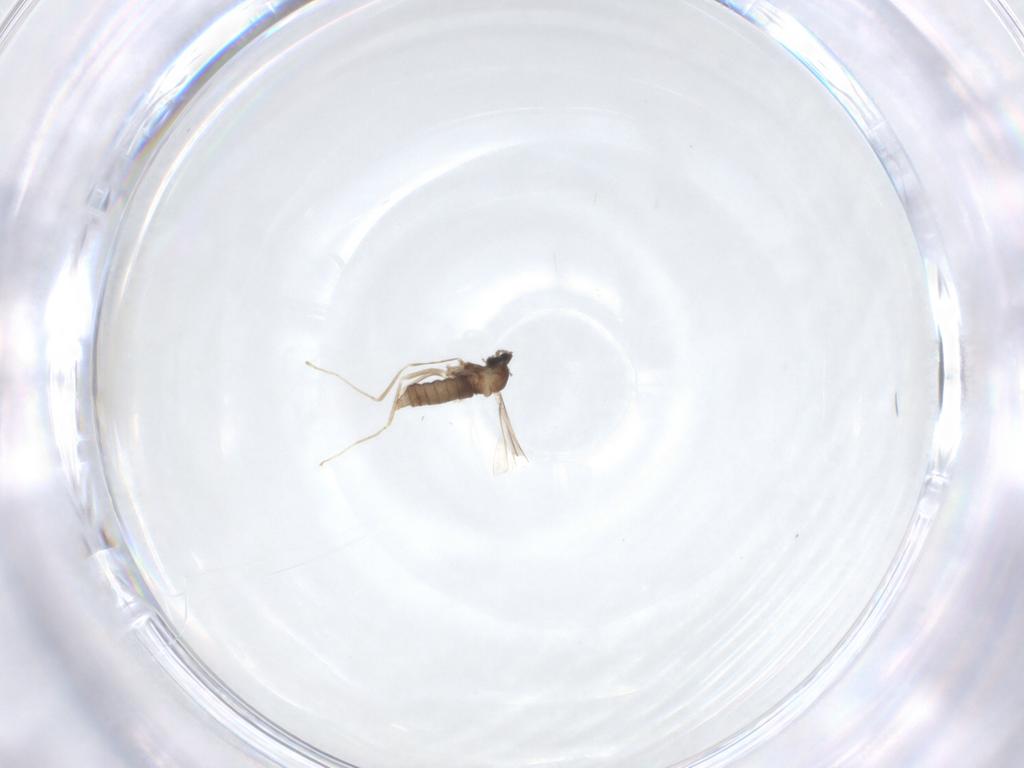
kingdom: Animalia
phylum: Arthropoda
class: Insecta
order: Diptera
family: Cecidomyiidae
